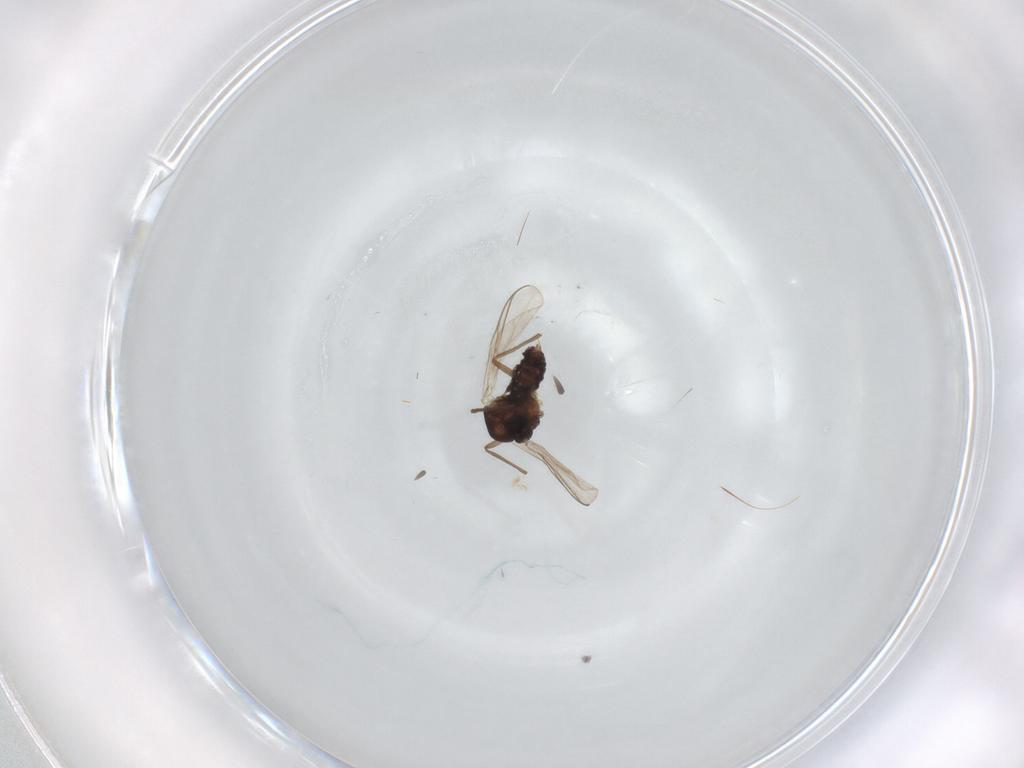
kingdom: Animalia
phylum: Arthropoda
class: Insecta
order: Diptera
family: Chironomidae
